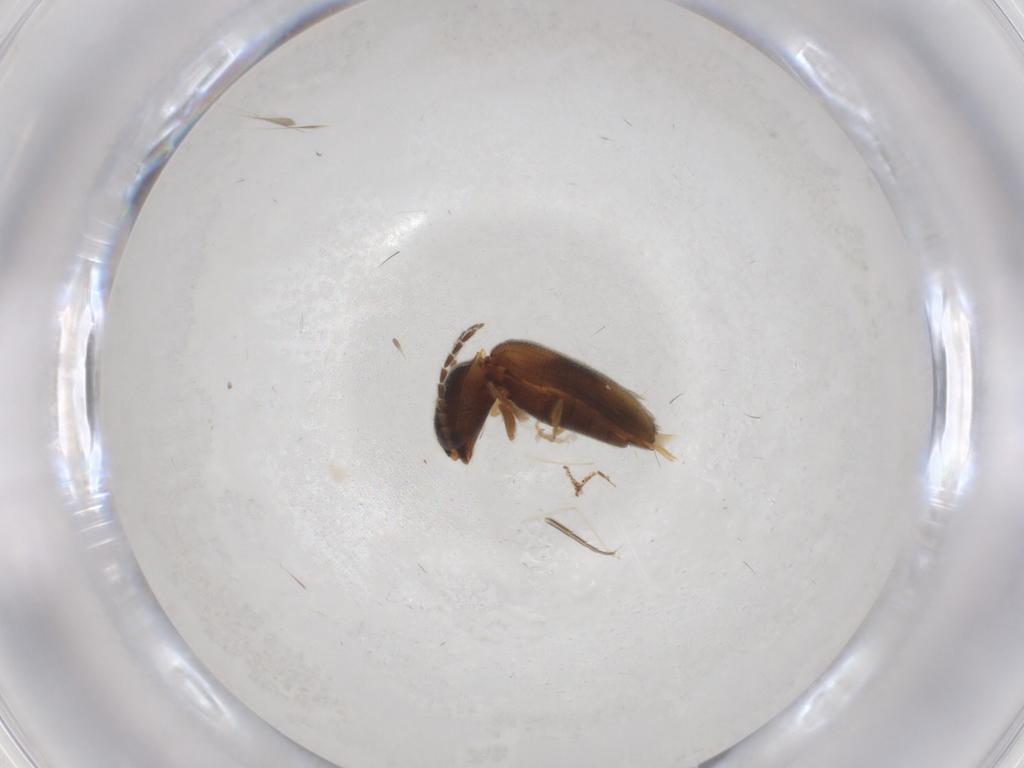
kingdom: Animalia
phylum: Arthropoda
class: Insecta
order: Coleoptera
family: Elateridae
